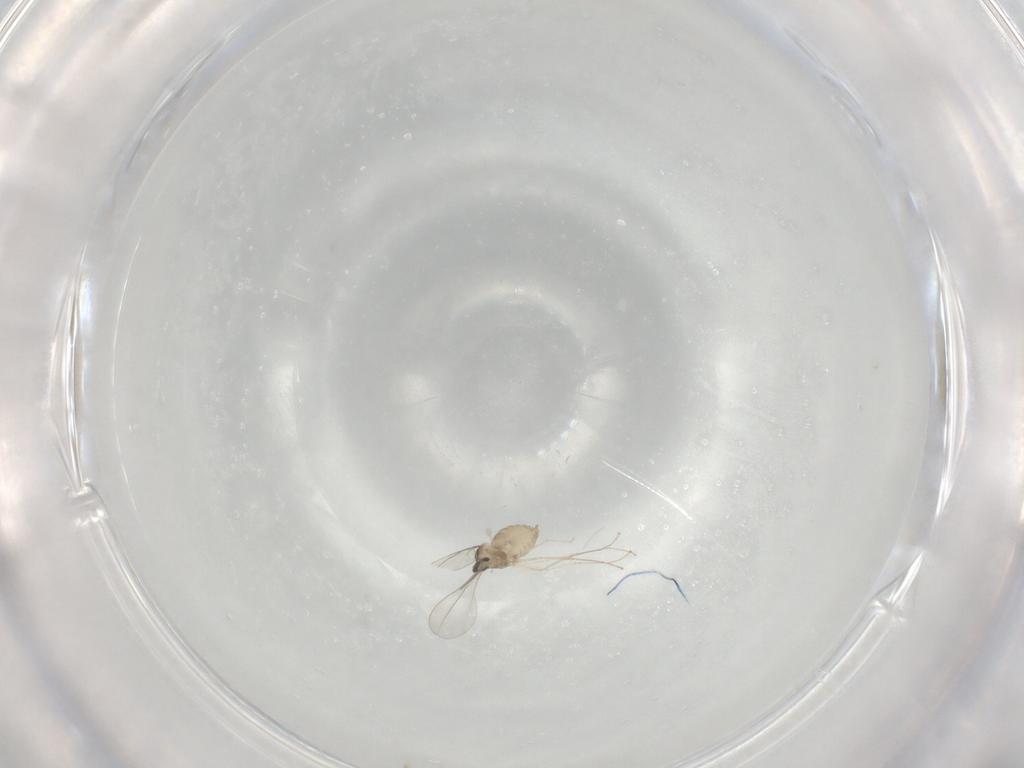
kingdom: Animalia
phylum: Arthropoda
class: Insecta
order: Diptera
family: Cecidomyiidae
